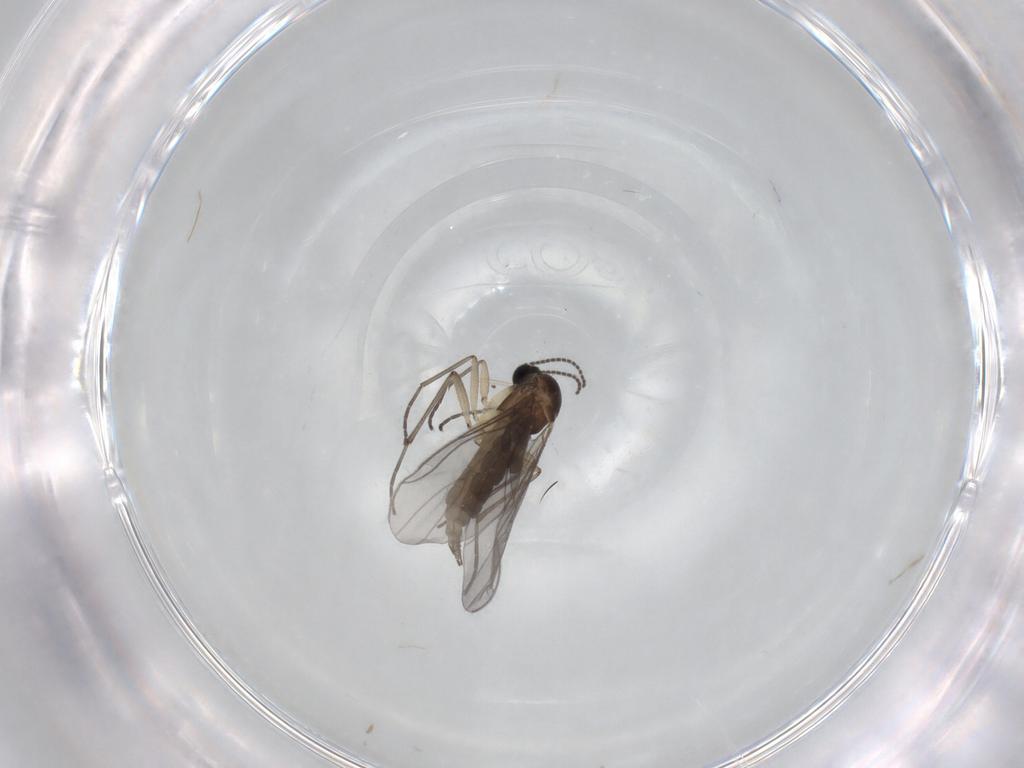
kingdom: Animalia
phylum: Arthropoda
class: Insecta
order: Diptera
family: Sciaridae
